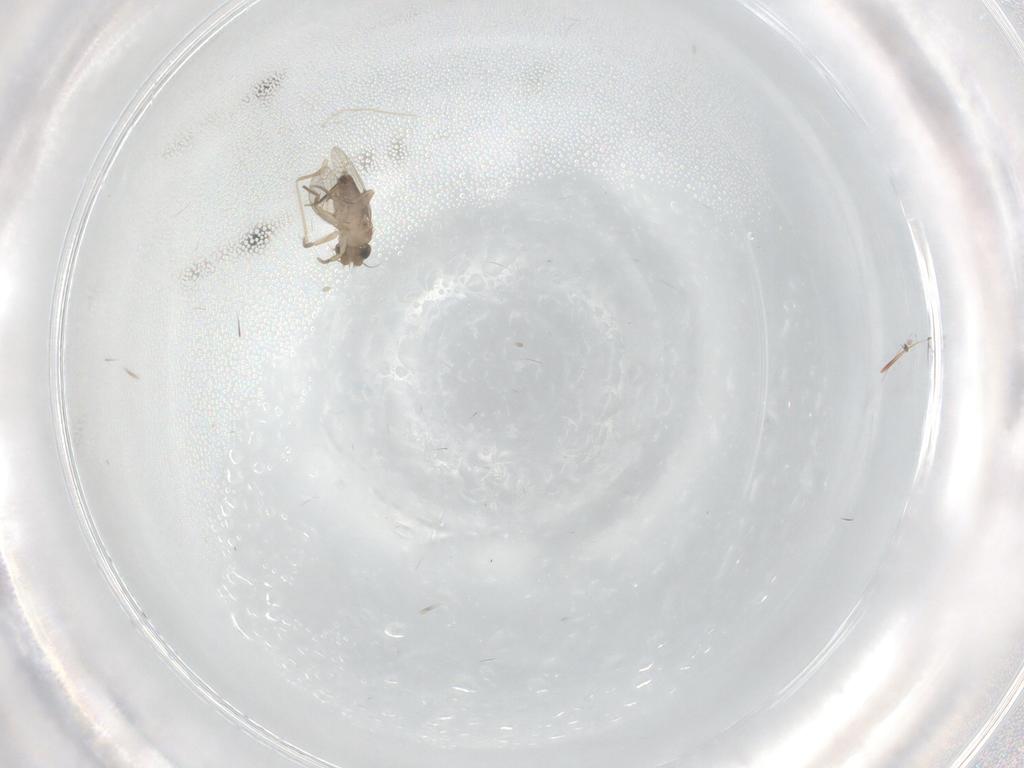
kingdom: Animalia
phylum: Arthropoda
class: Insecta
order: Diptera
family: Phoridae
